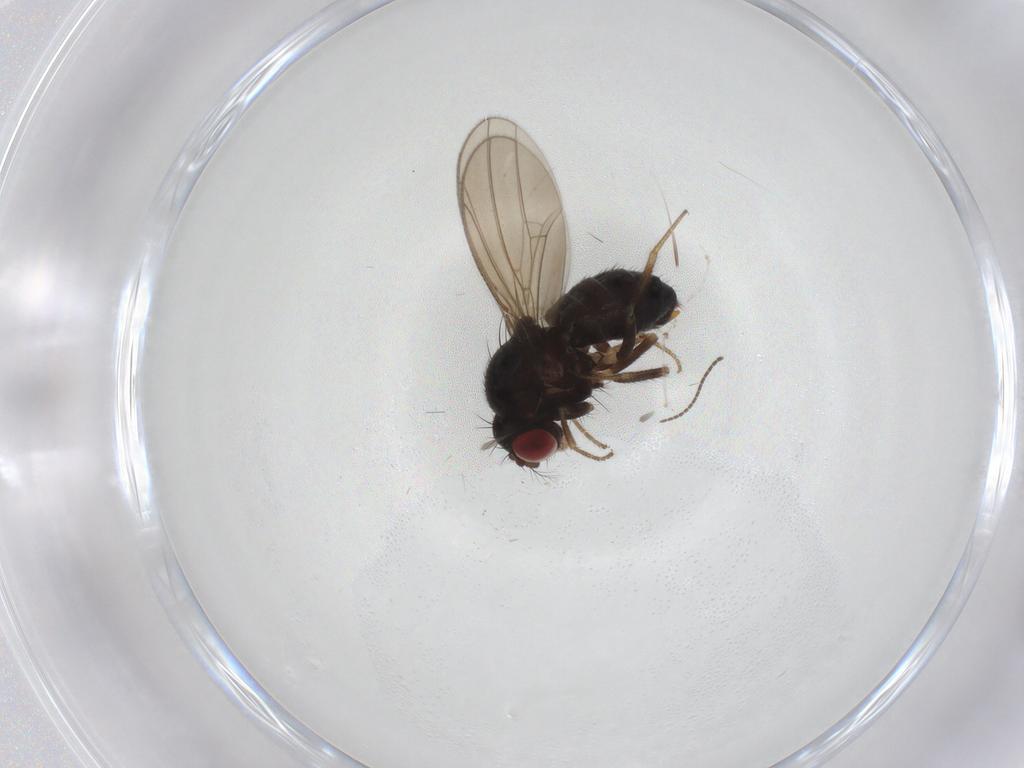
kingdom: Animalia
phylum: Arthropoda
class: Insecta
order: Diptera
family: Drosophilidae
